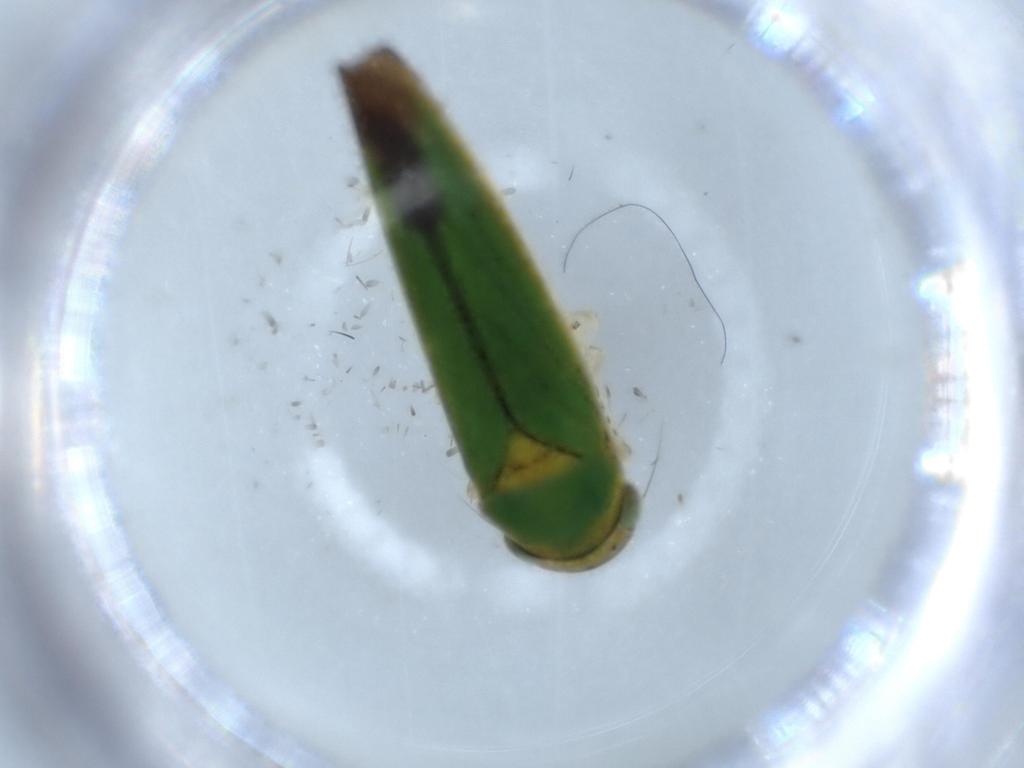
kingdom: Animalia
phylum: Arthropoda
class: Insecta
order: Hemiptera
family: Cicadellidae
